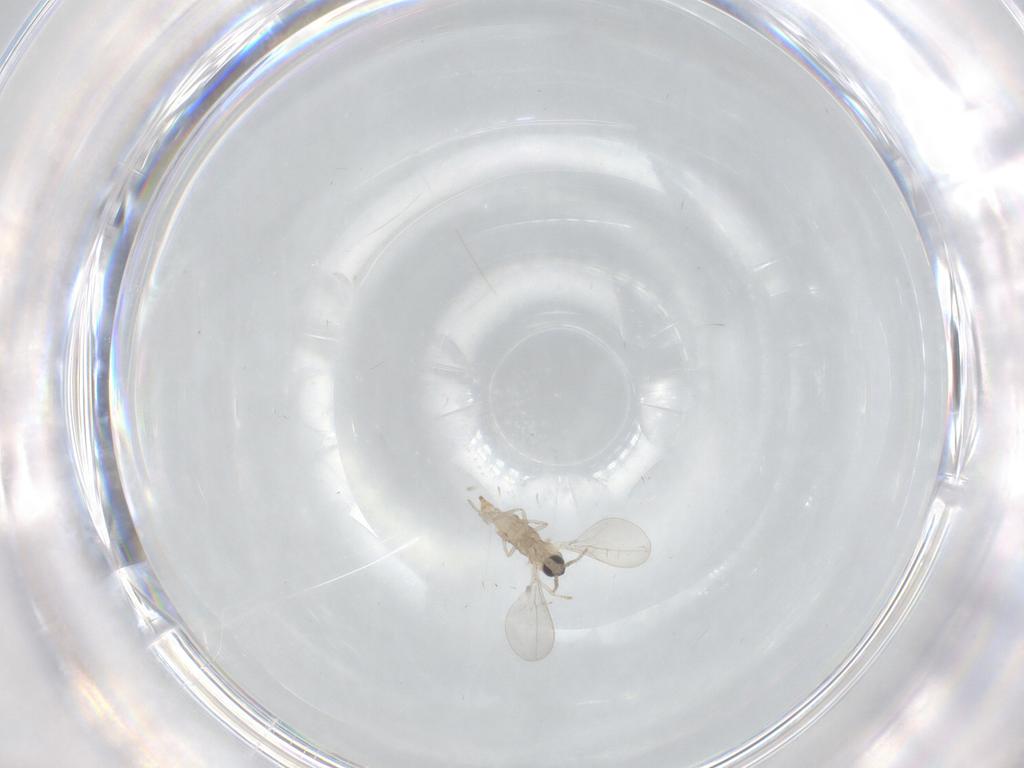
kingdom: Animalia
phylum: Arthropoda
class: Insecta
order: Diptera
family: Cecidomyiidae
